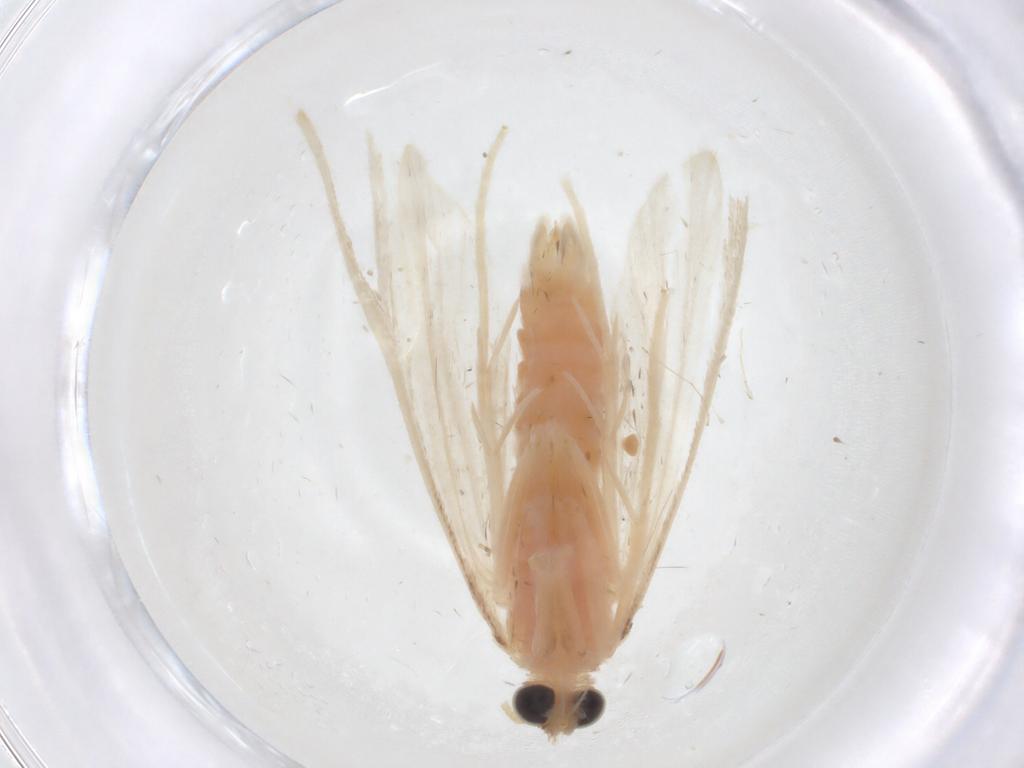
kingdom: Animalia
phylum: Arthropoda
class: Insecta
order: Lepidoptera
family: Crambidae
